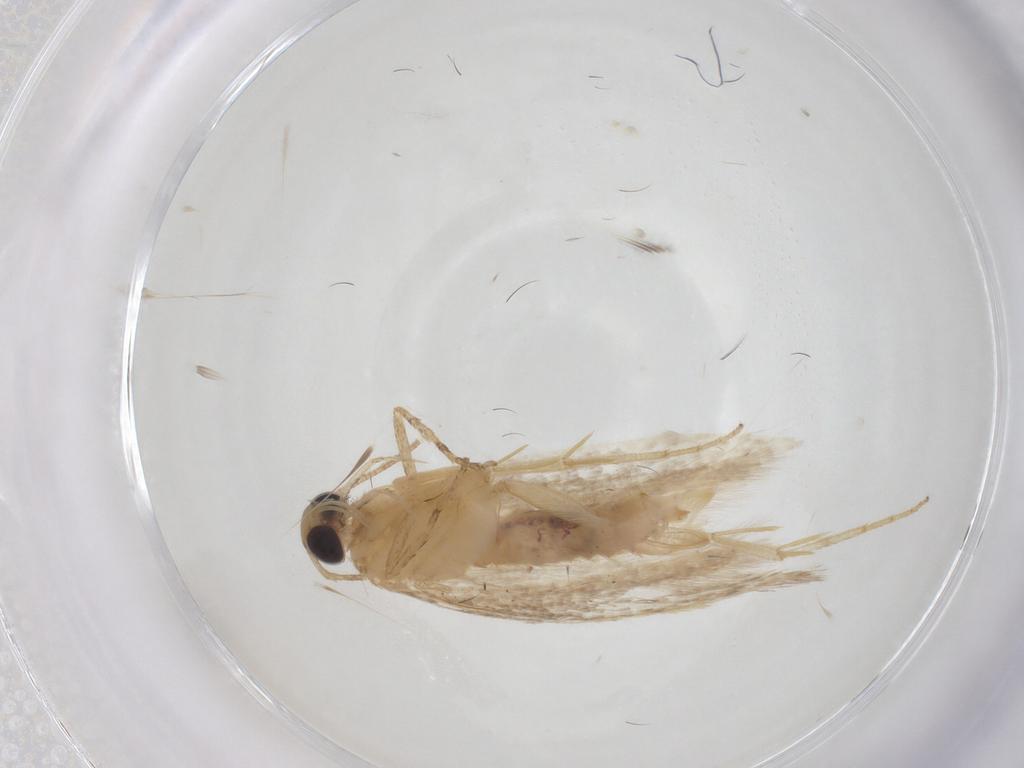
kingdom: Animalia
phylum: Arthropoda
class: Insecta
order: Lepidoptera
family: Gelechiidae
